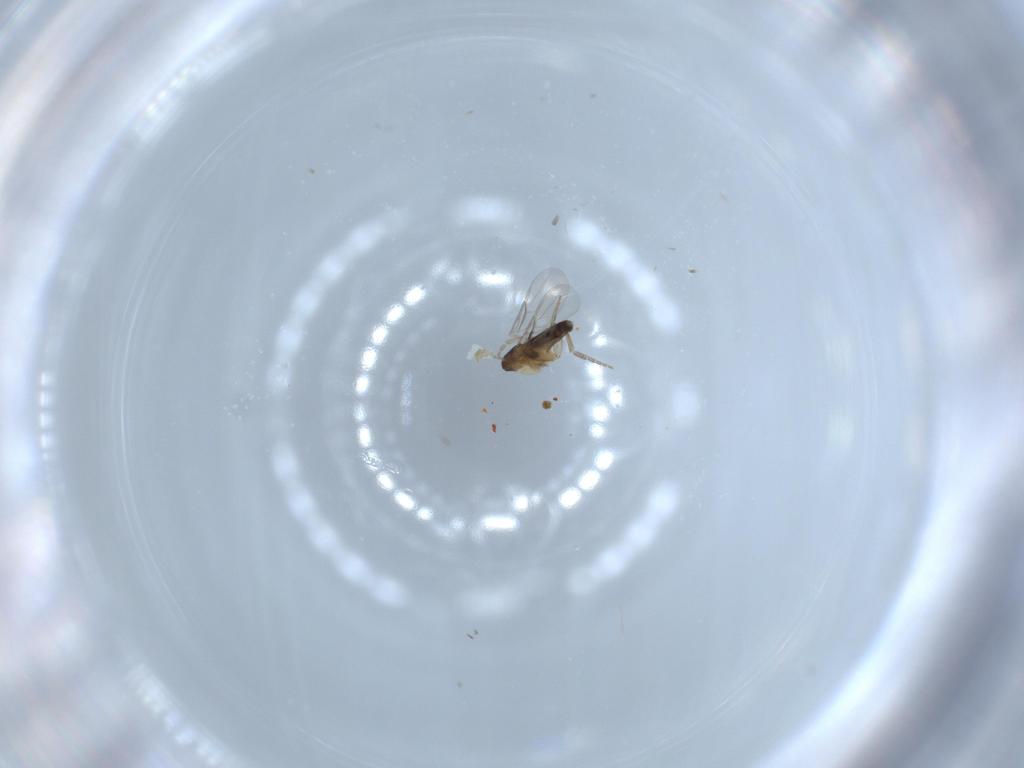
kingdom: Animalia
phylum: Arthropoda
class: Insecta
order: Diptera
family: Phoridae
